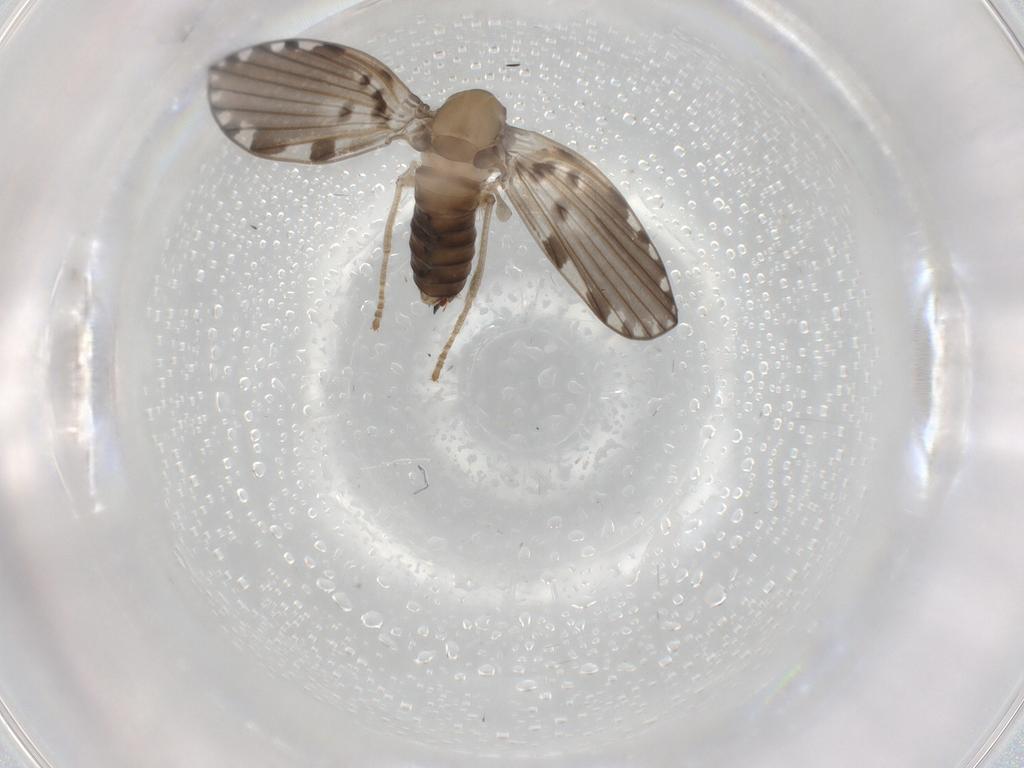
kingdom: Animalia
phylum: Arthropoda
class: Insecta
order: Diptera
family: Psychodidae
